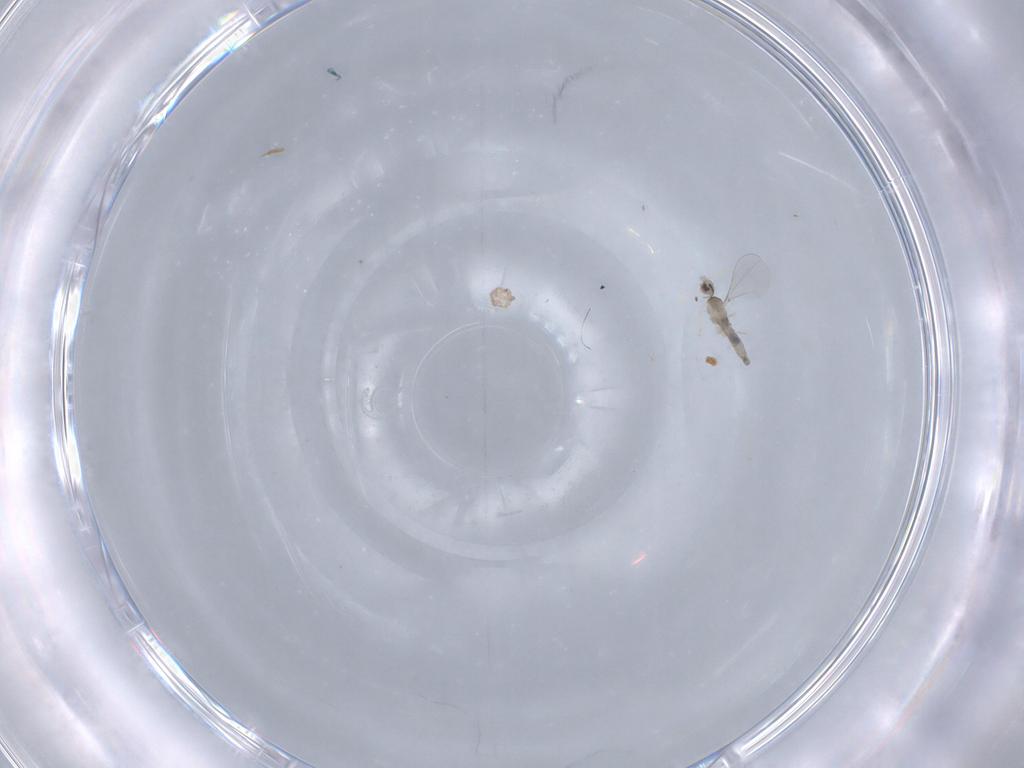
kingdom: Animalia
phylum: Arthropoda
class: Insecta
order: Diptera
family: Cecidomyiidae
